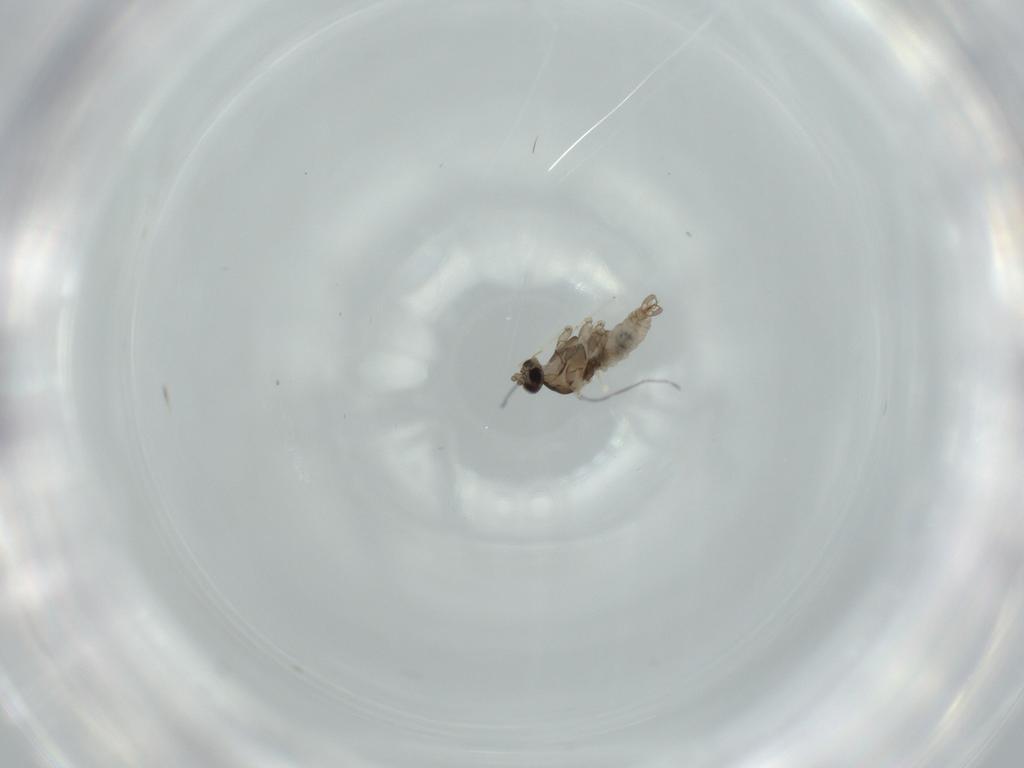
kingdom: Animalia
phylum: Arthropoda
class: Insecta
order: Diptera
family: Cecidomyiidae
